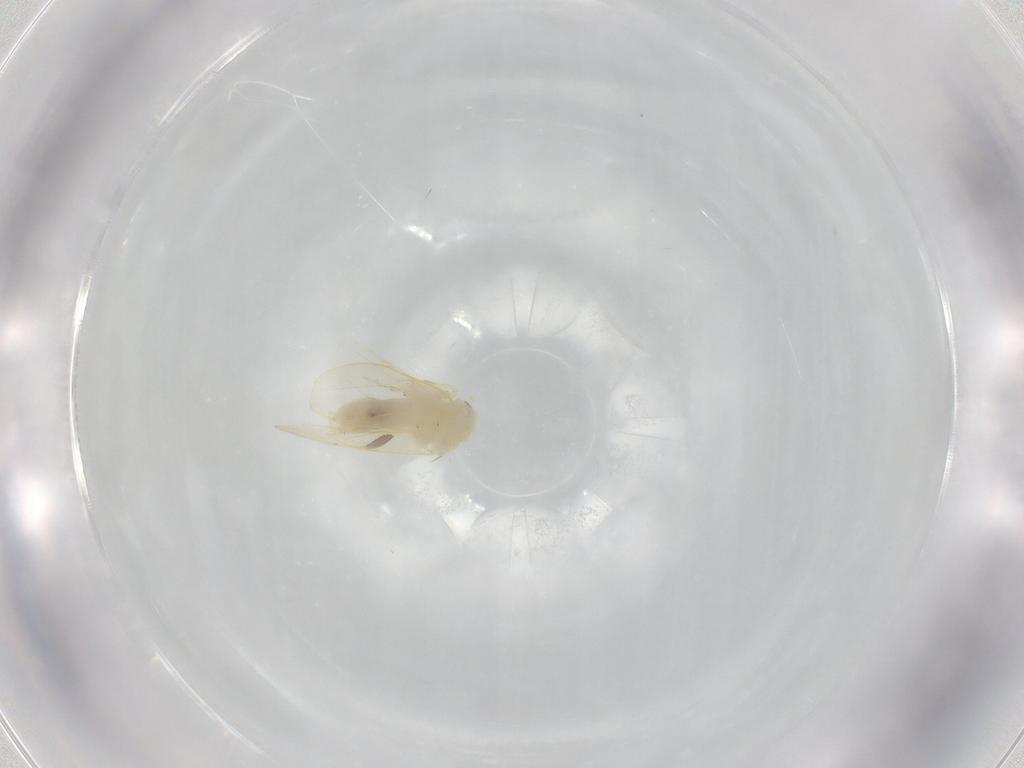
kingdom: Animalia
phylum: Arthropoda
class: Insecta
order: Hemiptera
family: Aleyrodidae
